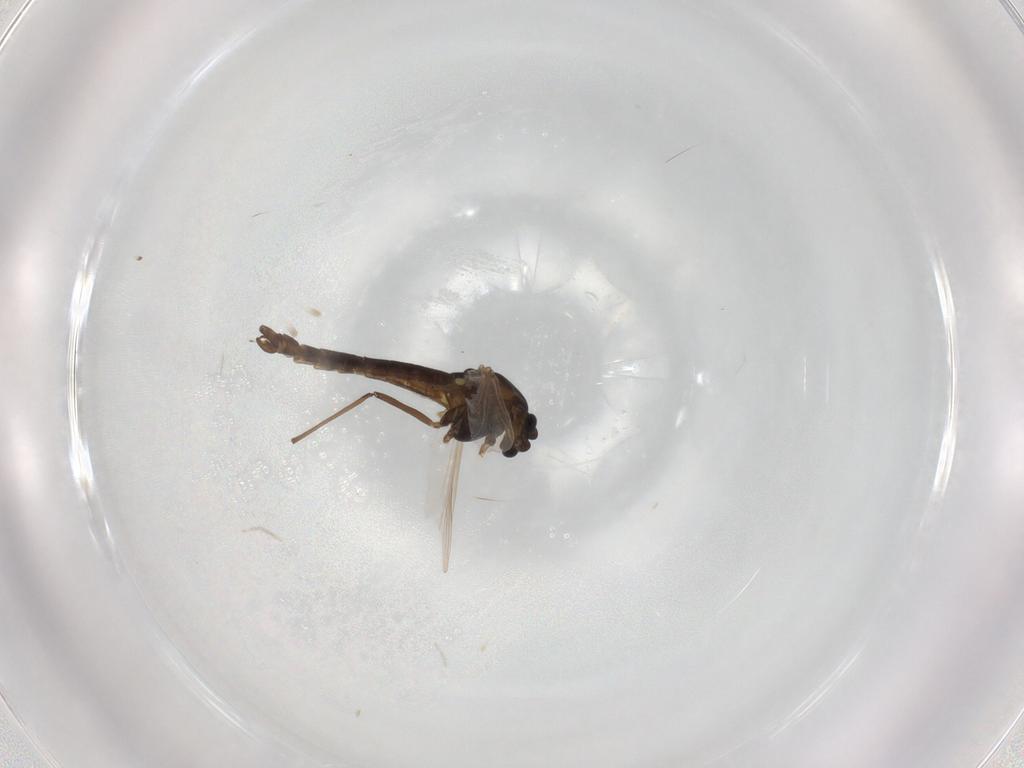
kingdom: Animalia
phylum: Arthropoda
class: Insecta
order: Diptera
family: Chironomidae
